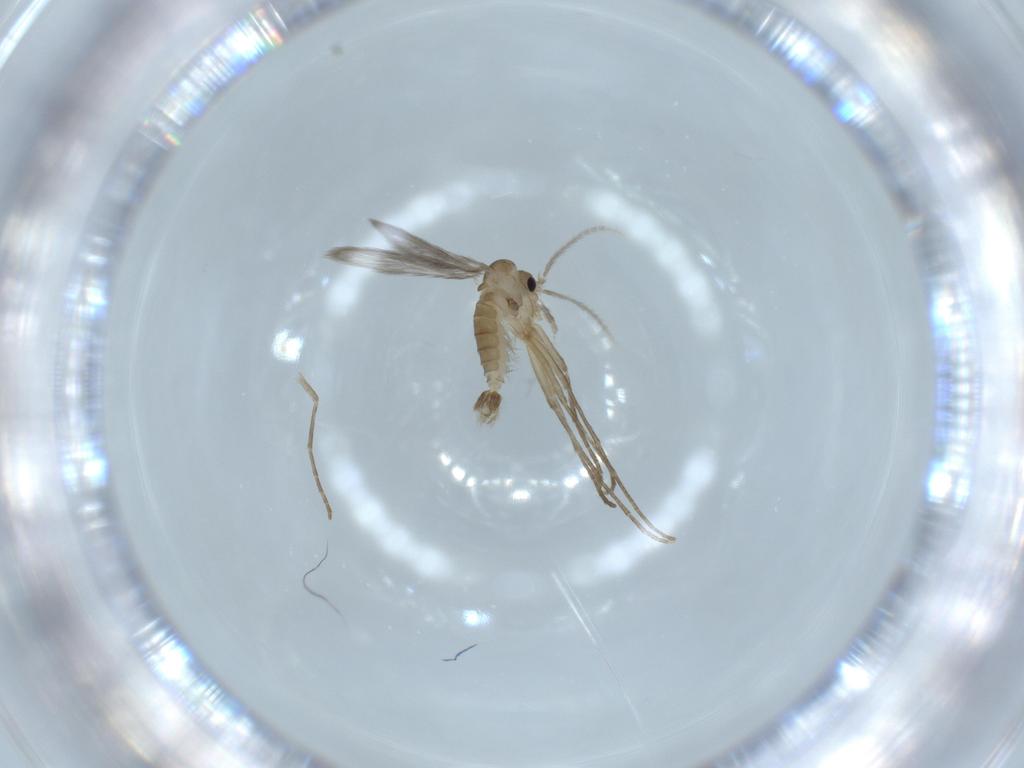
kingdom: Animalia
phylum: Arthropoda
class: Insecta
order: Diptera
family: Psychodidae
